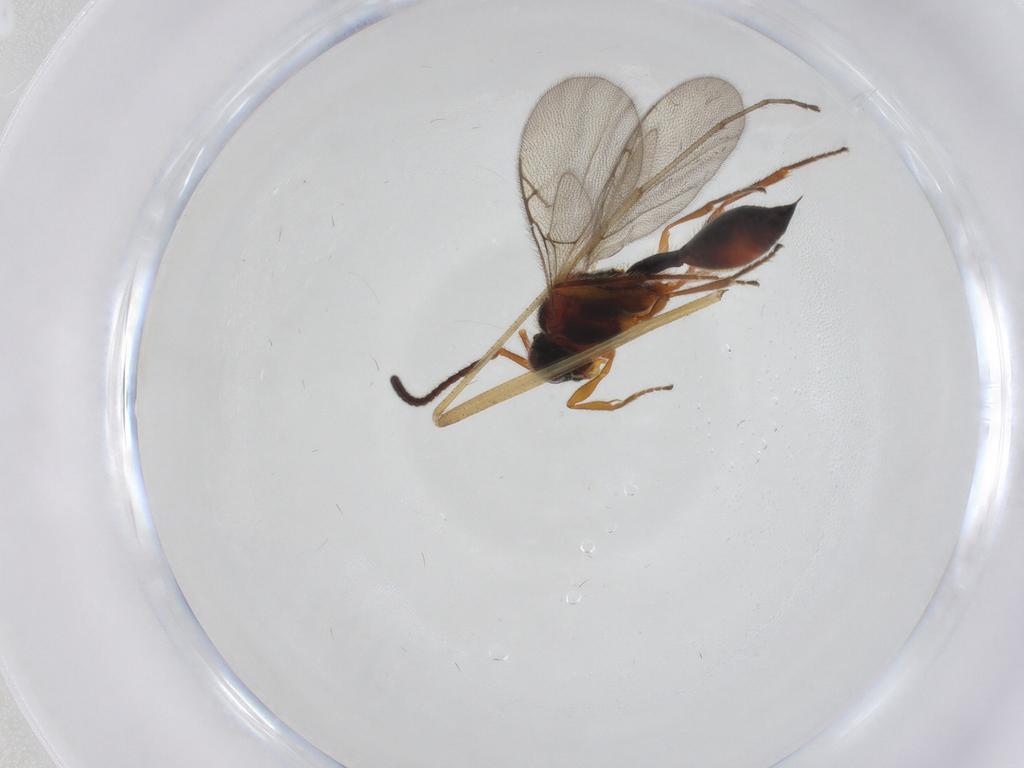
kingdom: Animalia
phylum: Arthropoda
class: Insecta
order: Hymenoptera
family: Diapriidae
